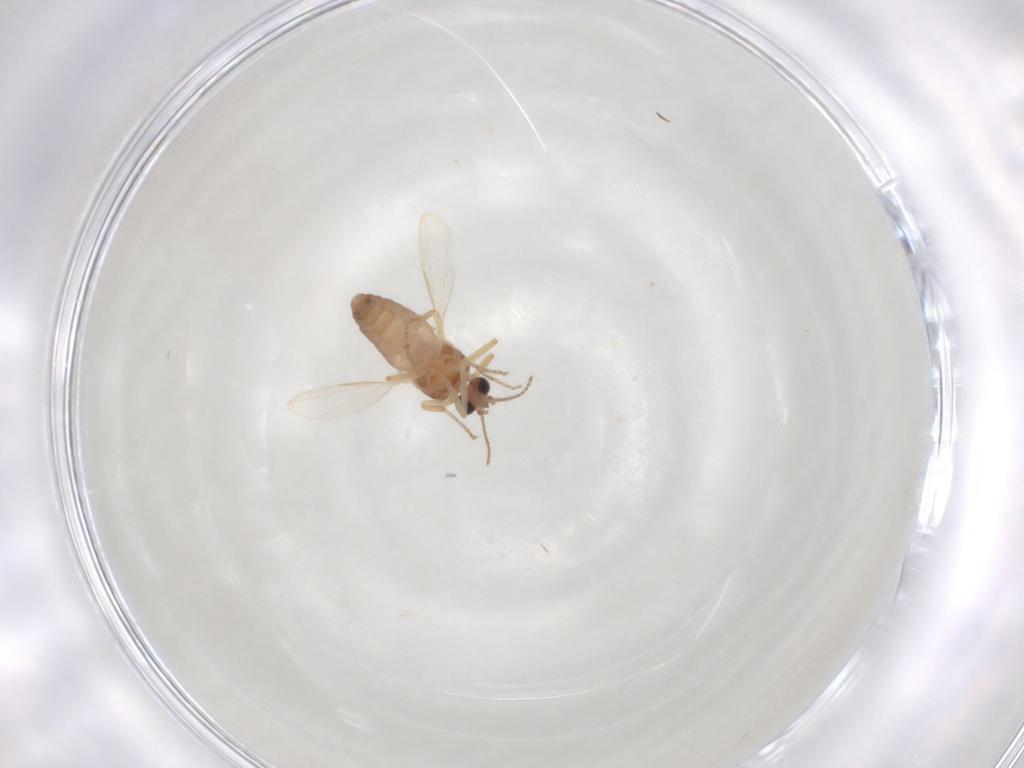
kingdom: Animalia
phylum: Arthropoda
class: Insecta
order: Diptera
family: Ceratopogonidae
